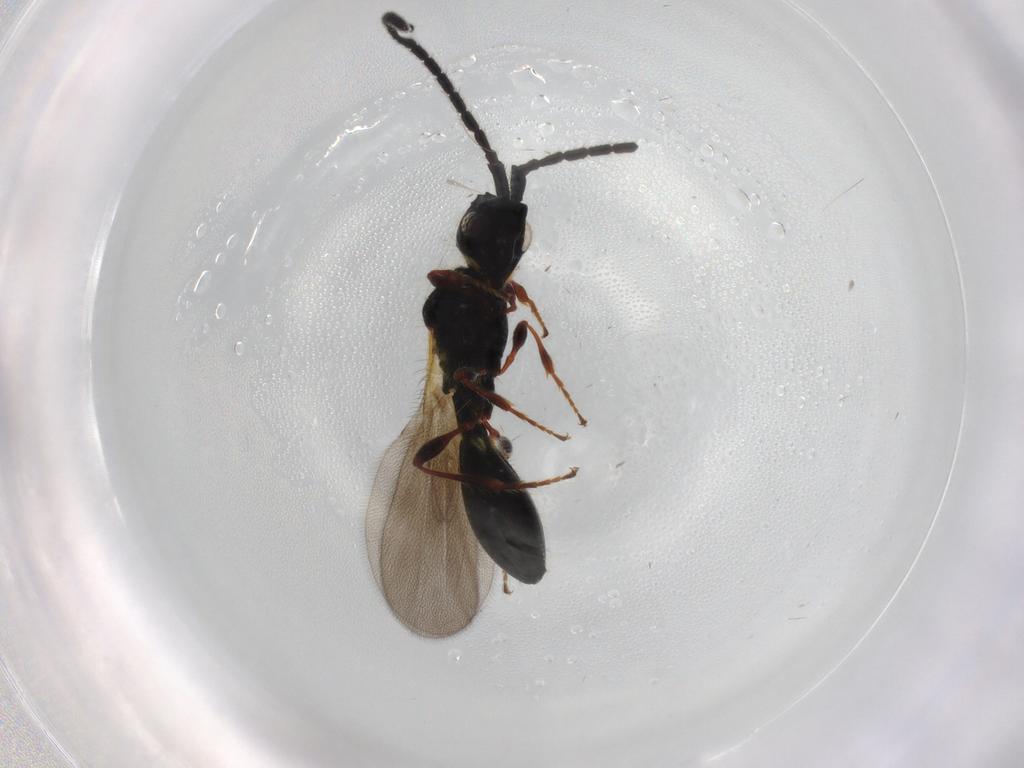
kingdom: Animalia
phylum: Arthropoda
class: Insecta
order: Hymenoptera
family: Diapriidae
